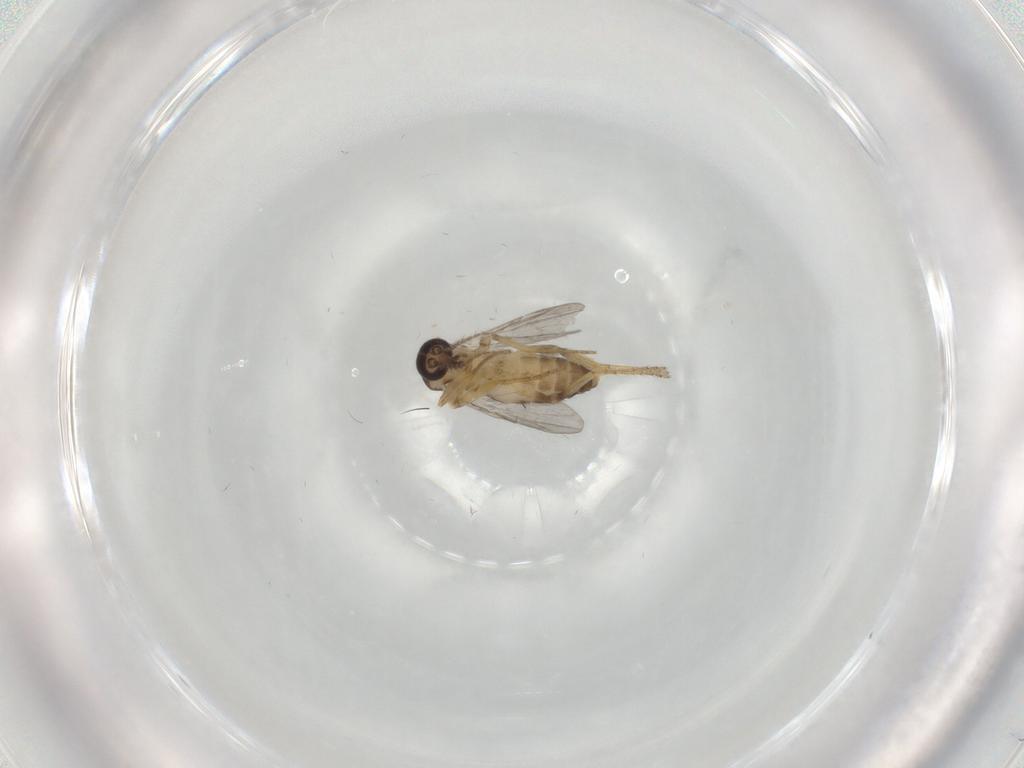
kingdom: Animalia
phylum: Arthropoda
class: Insecta
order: Diptera
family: Ceratopogonidae
